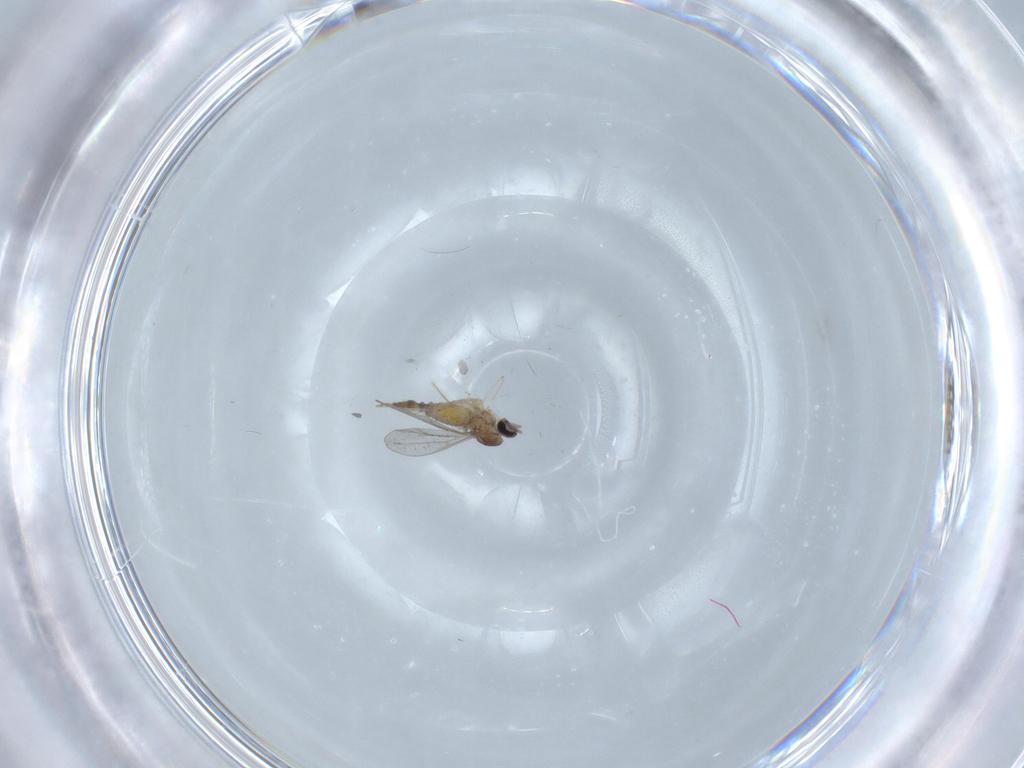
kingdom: Animalia
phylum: Arthropoda
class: Insecta
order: Diptera
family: Cecidomyiidae
